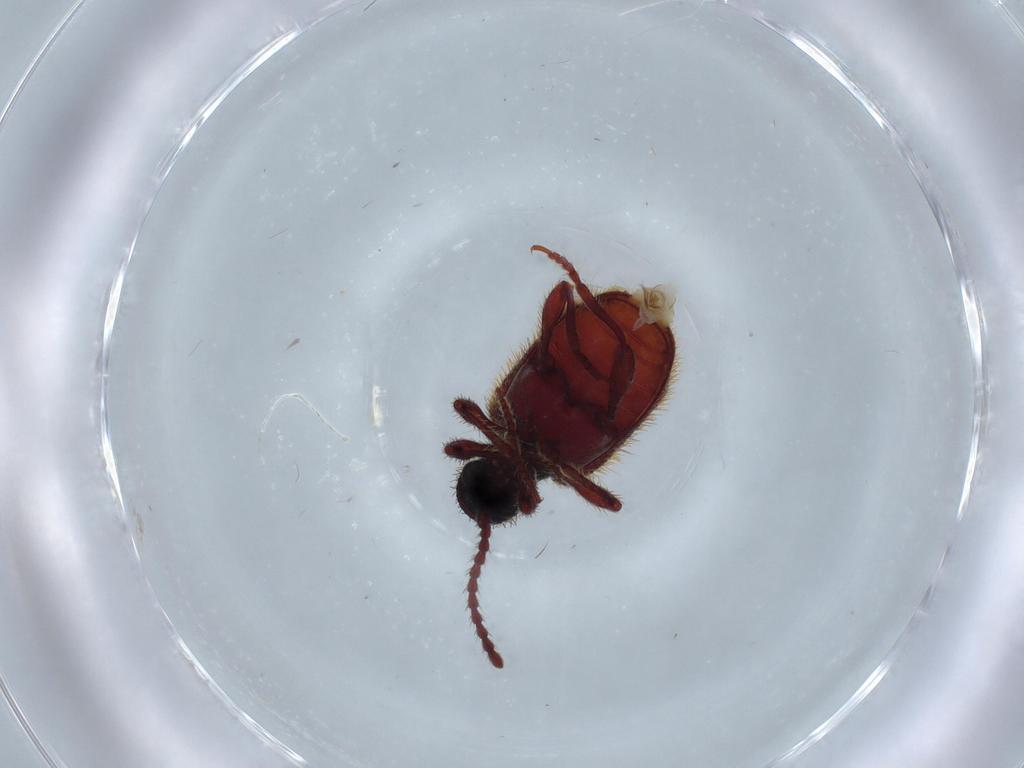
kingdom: Animalia
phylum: Arthropoda
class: Insecta
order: Coleoptera
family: Ptinidae
